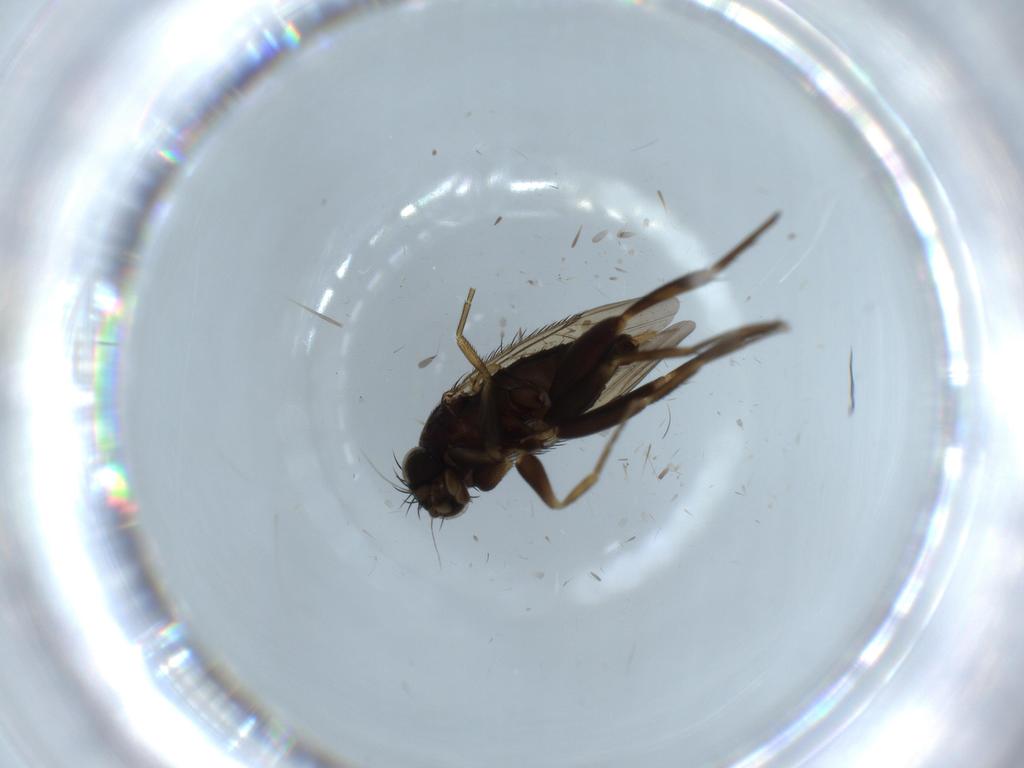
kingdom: Animalia
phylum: Arthropoda
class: Insecta
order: Diptera
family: Phoridae
